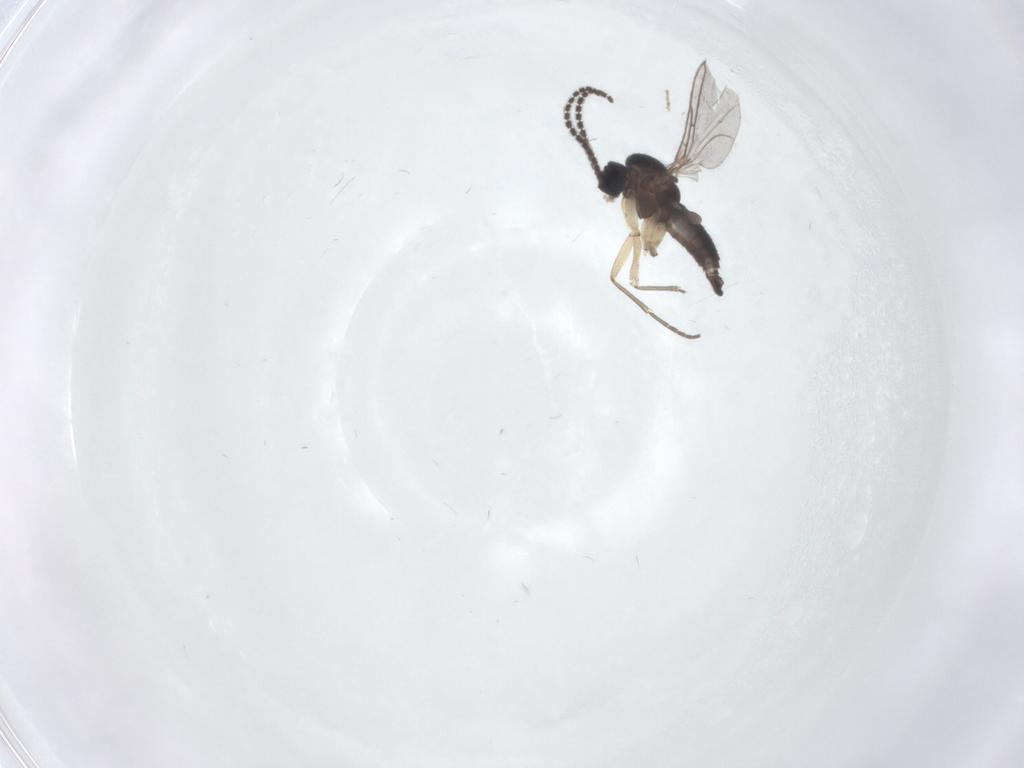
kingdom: Animalia
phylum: Arthropoda
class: Insecta
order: Diptera
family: Sciaridae
